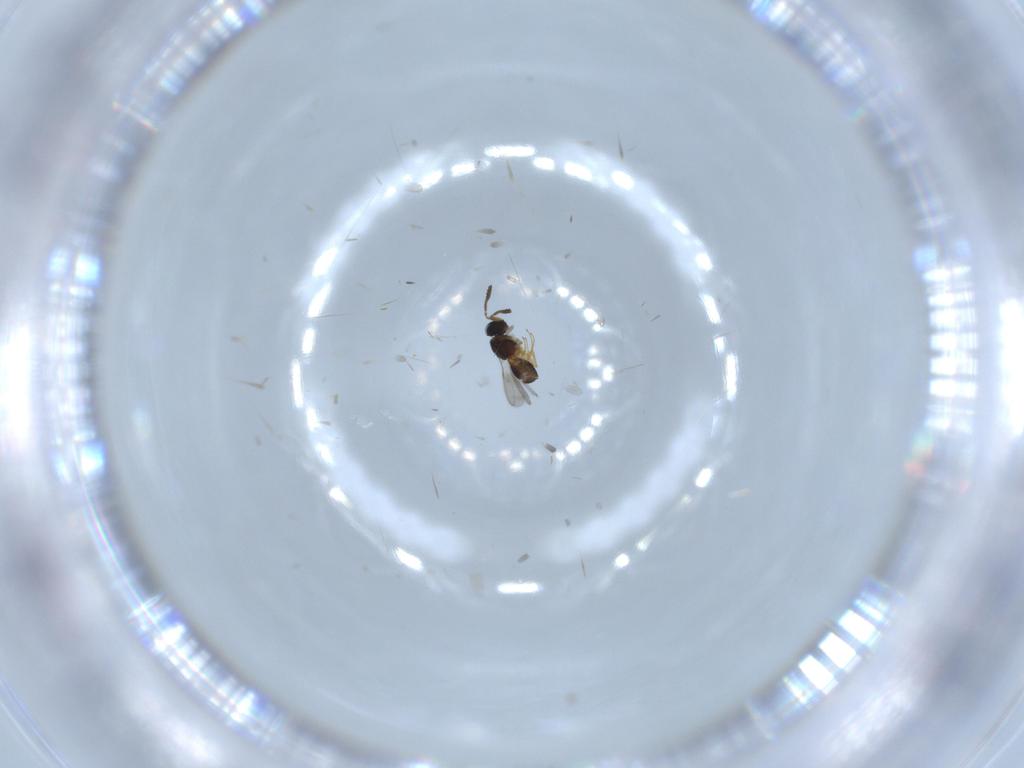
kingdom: Animalia
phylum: Arthropoda
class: Insecta
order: Hymenoptera
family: Scelionidae
